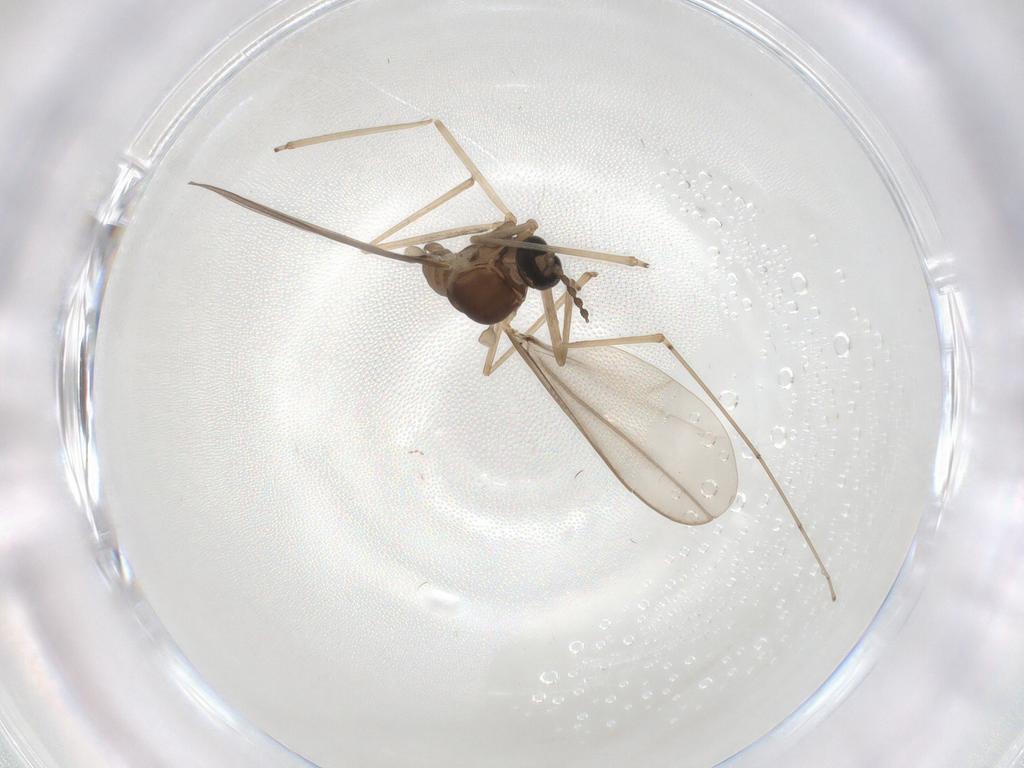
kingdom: Animalia
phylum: Arthropoda
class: Insecta
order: Diptera
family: Cecidomyiidae
